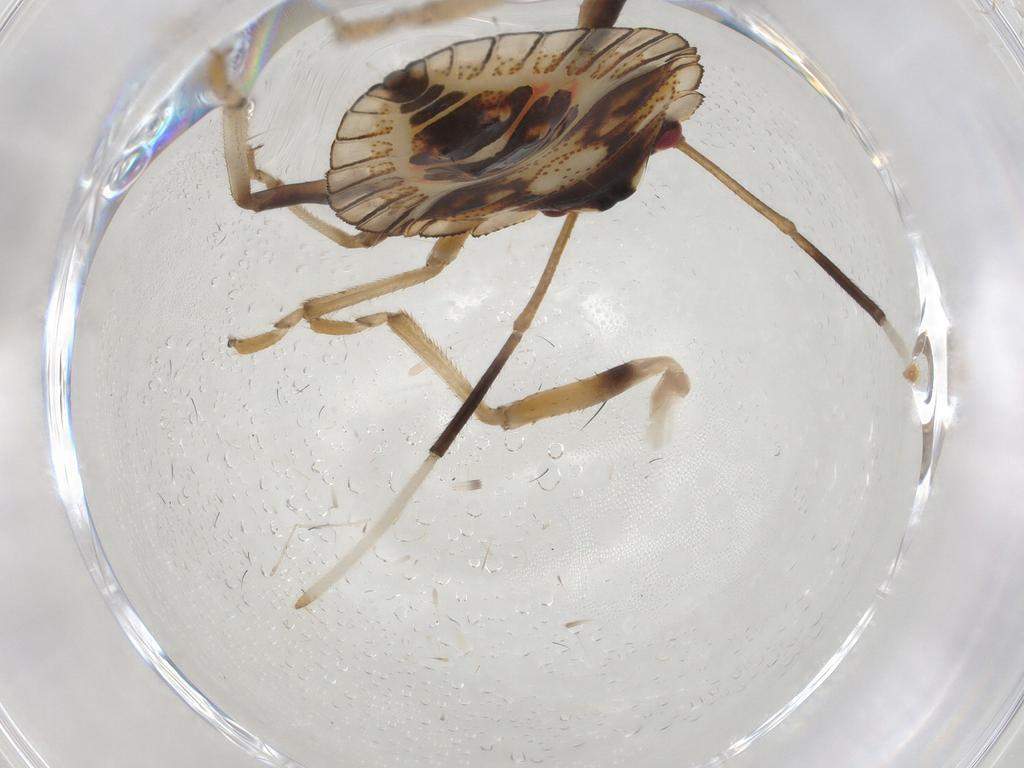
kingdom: Animalia
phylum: Arthropoda
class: Insecta
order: Hemiptera
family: Pentatomidae
